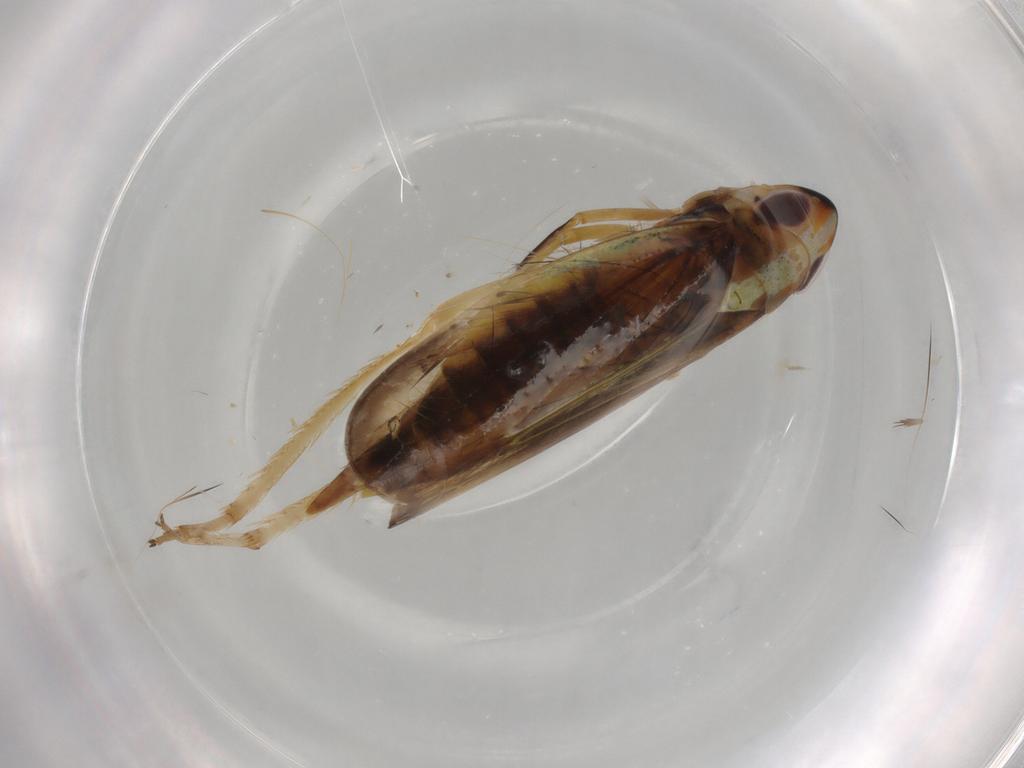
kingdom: Animalia
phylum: Arthropoda
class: Insecta
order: Hemiptera
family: Cicadellidae
